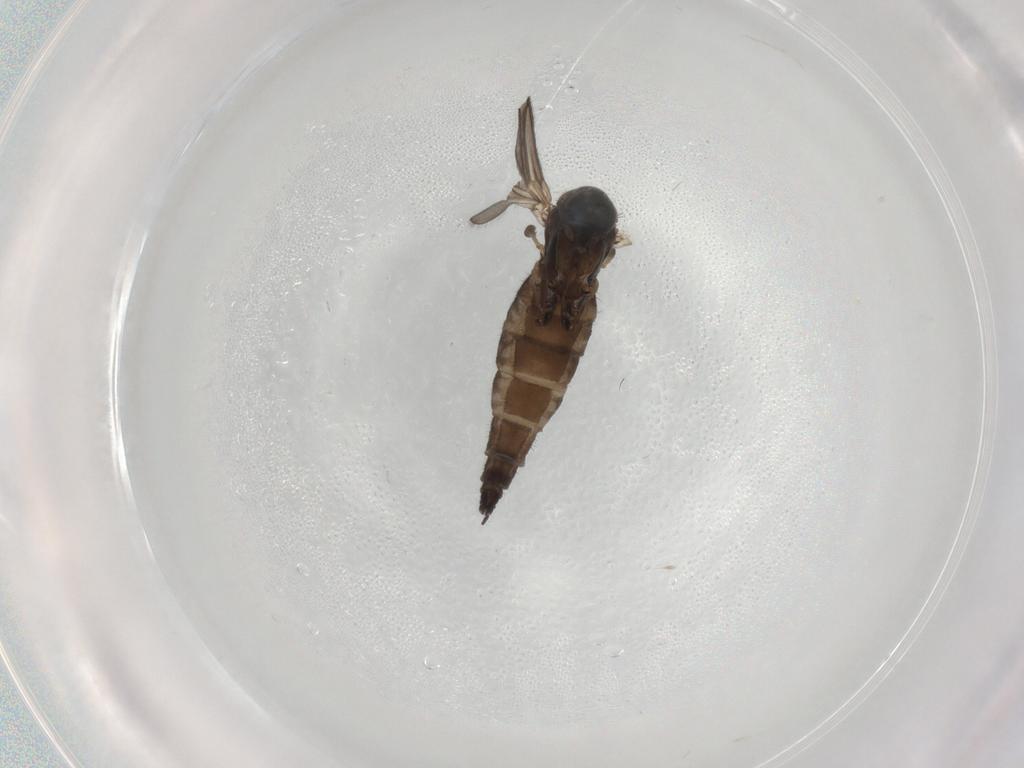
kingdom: Animalia
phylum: Arthropoda
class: Insecta
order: Diptera
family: Sciaridae
